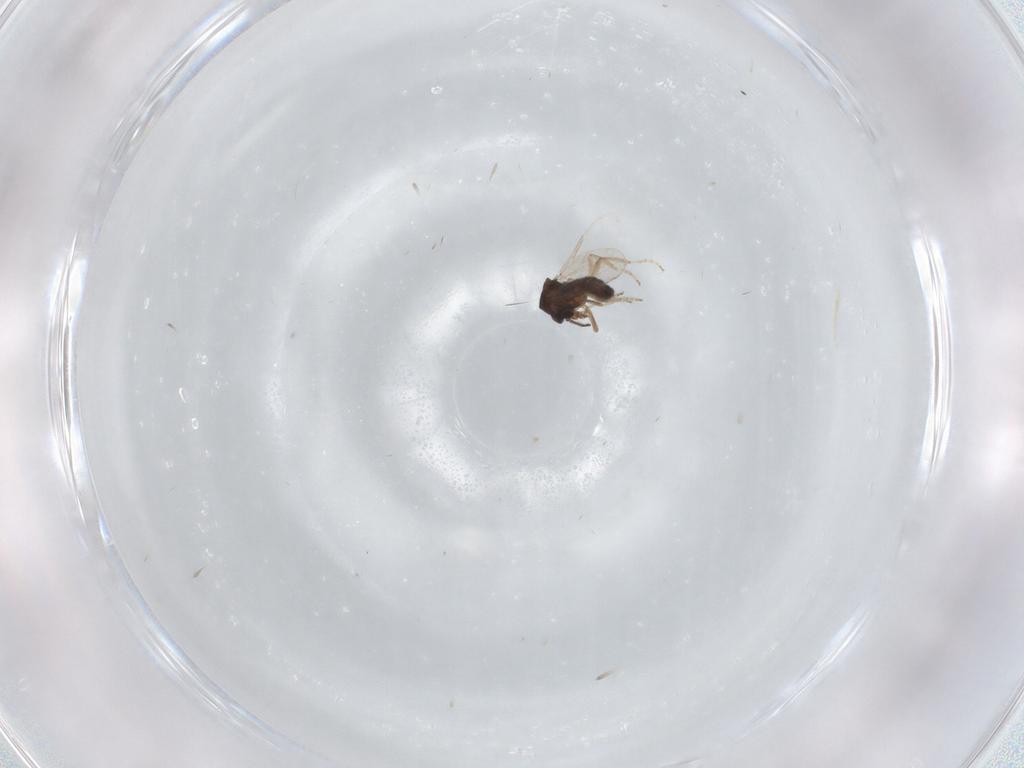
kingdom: Animalia
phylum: Arthropoda
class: Insecta
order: Diptera
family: Ceratopogonidae
